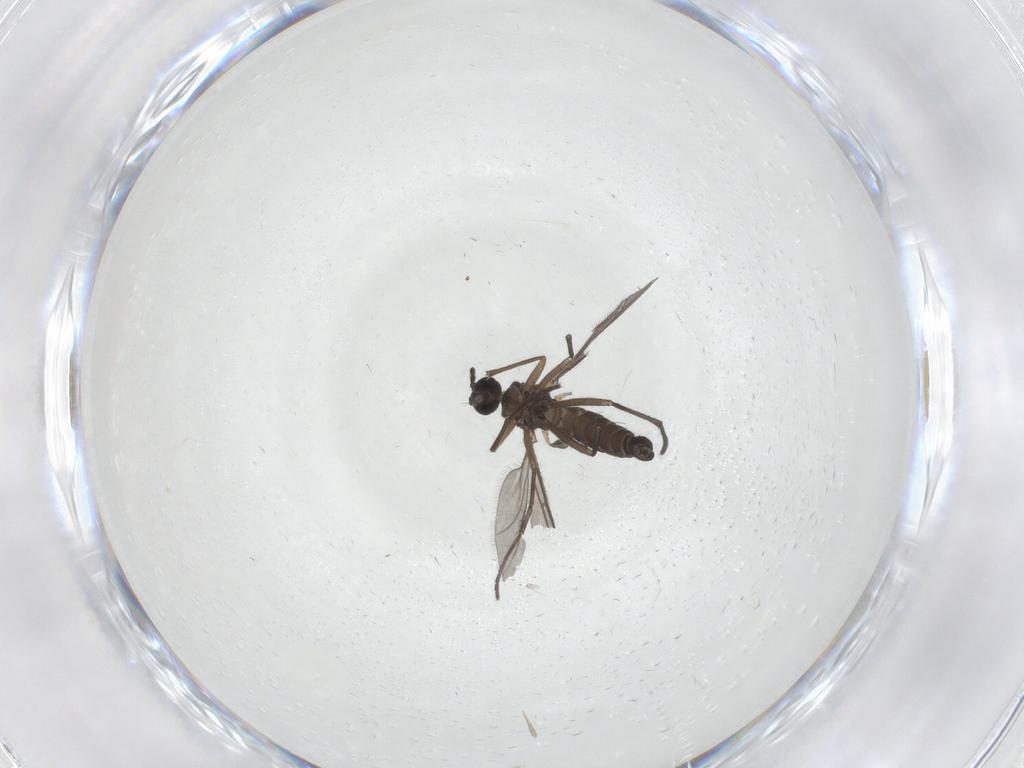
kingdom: Animalia
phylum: Arthropoda
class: Insecta
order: Diptera
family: Sciaridae
